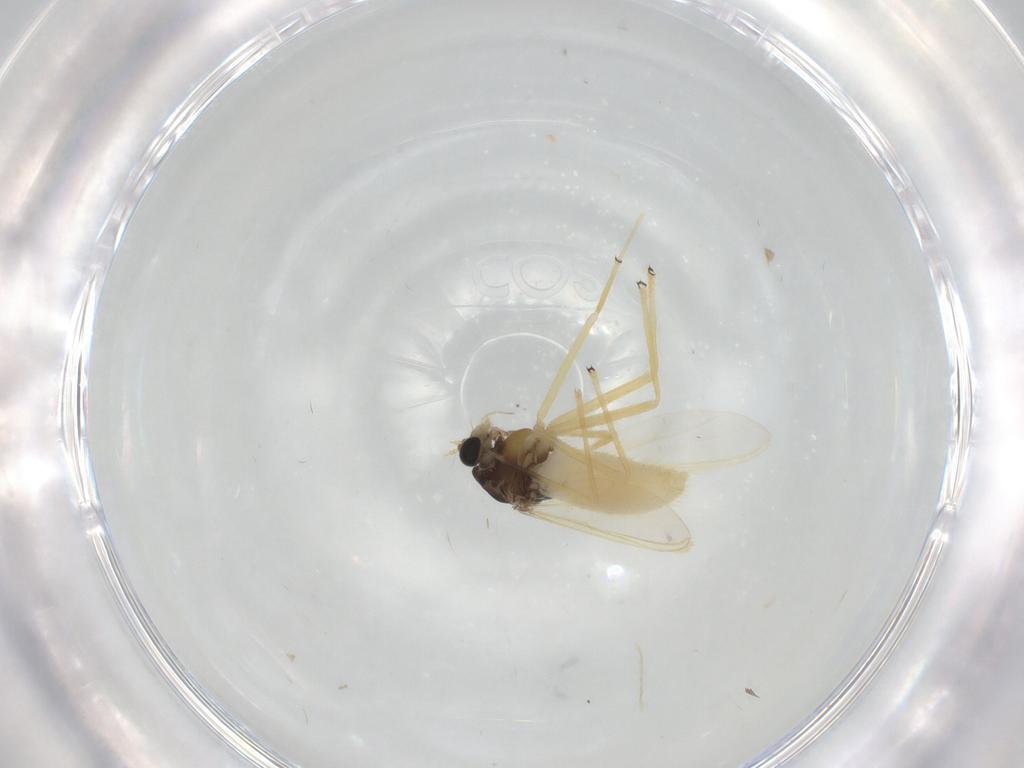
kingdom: Animalia
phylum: Arthropoda
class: Insecta
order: Diptera
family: Chironomidae
